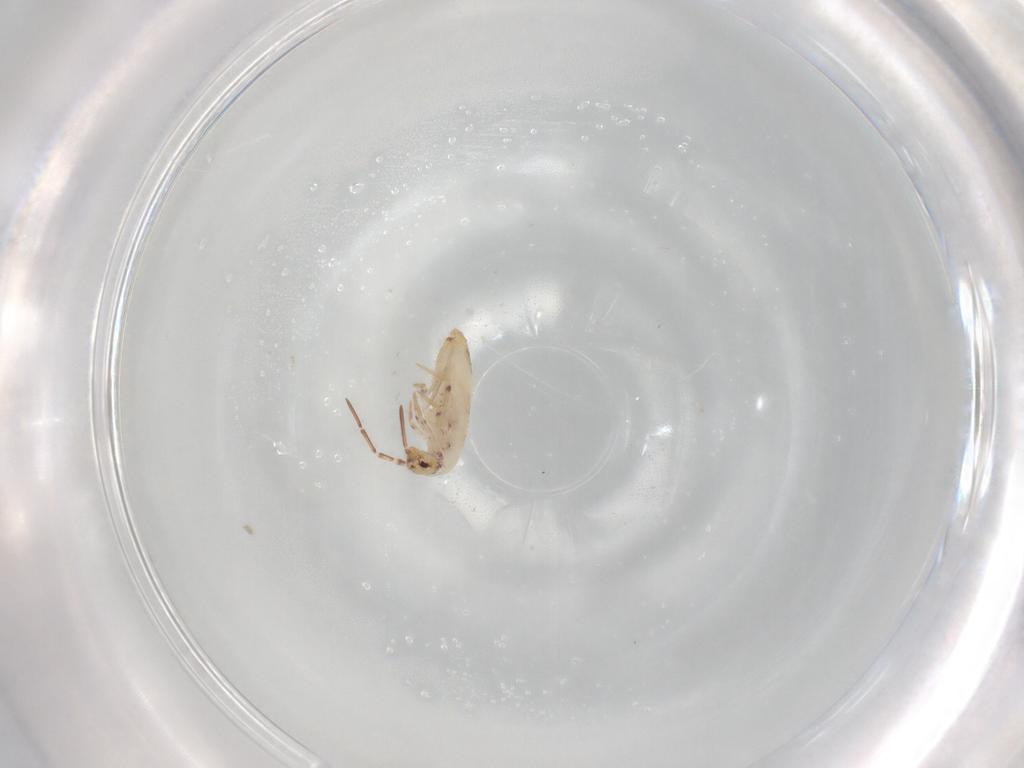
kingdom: Animalia
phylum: Arthropoda
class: Collembola
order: Entomobryomorpha
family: Entomobryidae
